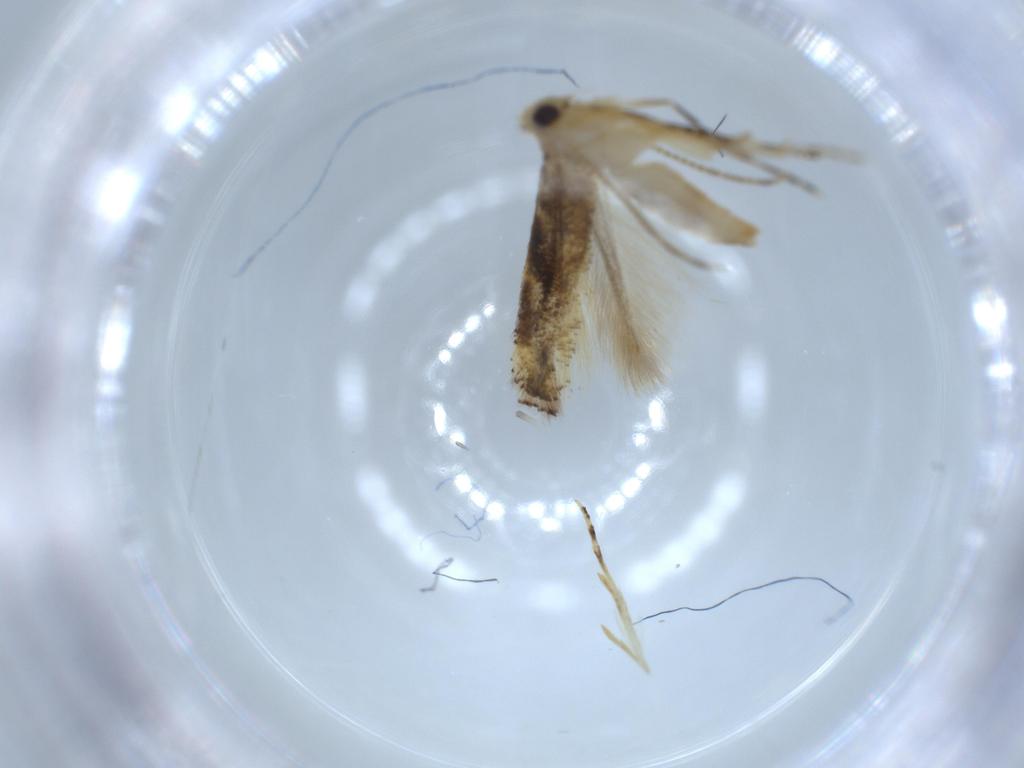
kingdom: Animalia
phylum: Arthropoda
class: Insecta
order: Lepidoptera
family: Bucculatricidae
